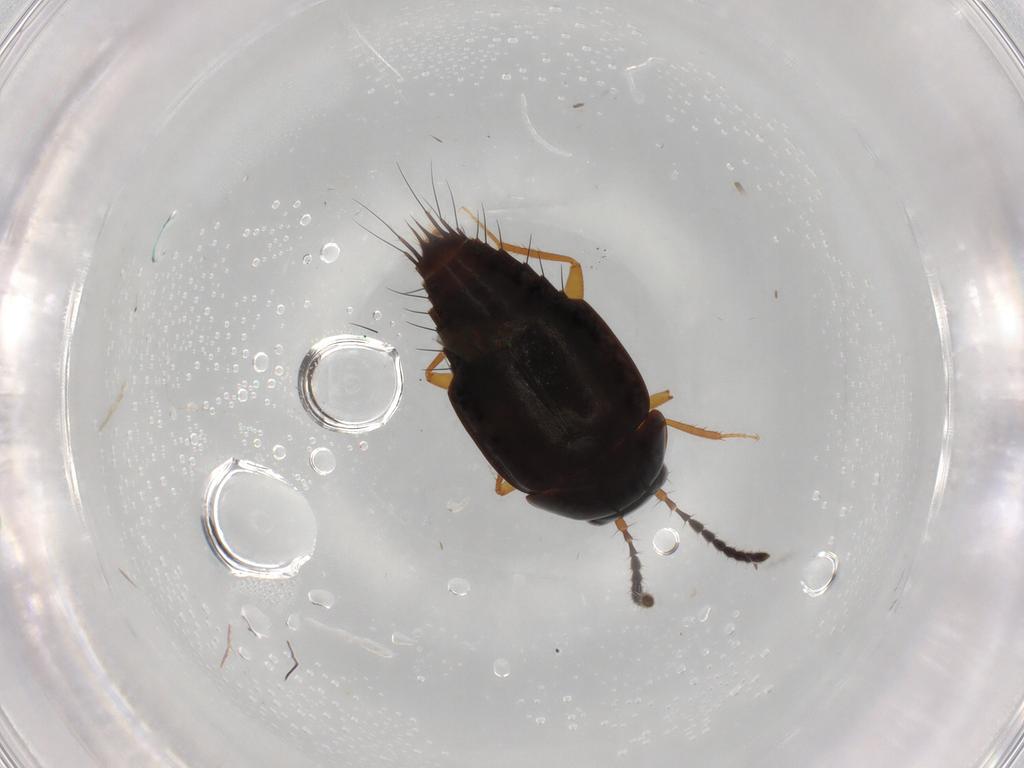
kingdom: Animalia
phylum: Arthropoda
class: Insecta
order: Coleoptera
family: Staphylinidae
